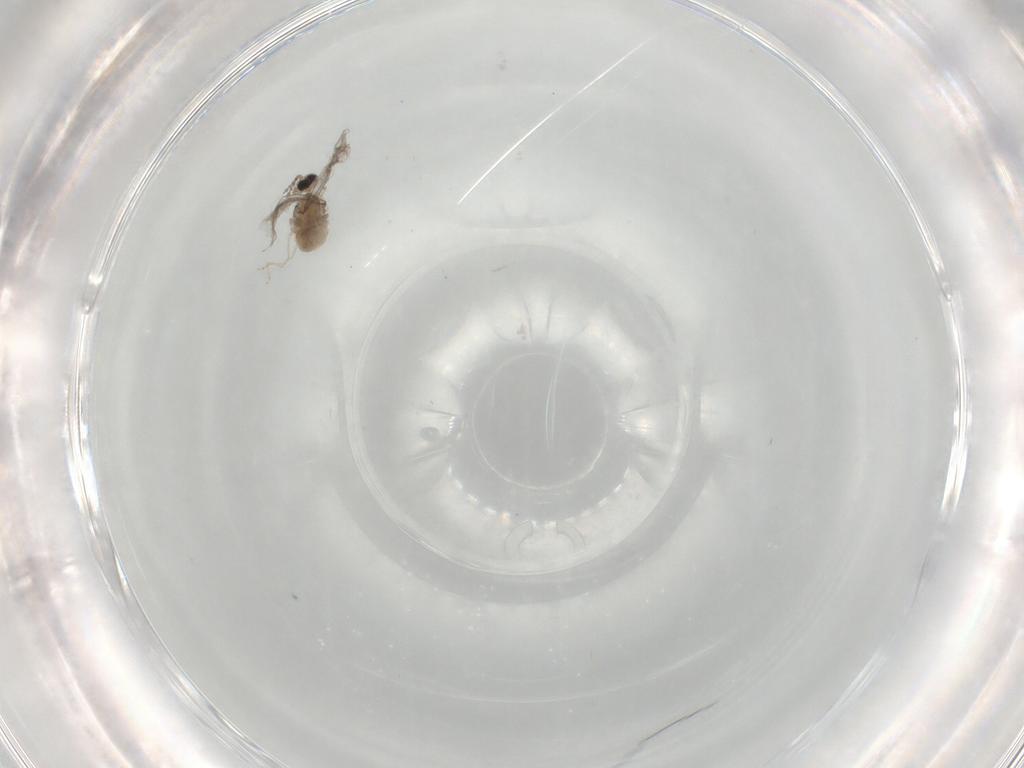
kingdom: Animalia
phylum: Arthropoda
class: Insecta
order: Diptera
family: Cecidomyiidae
